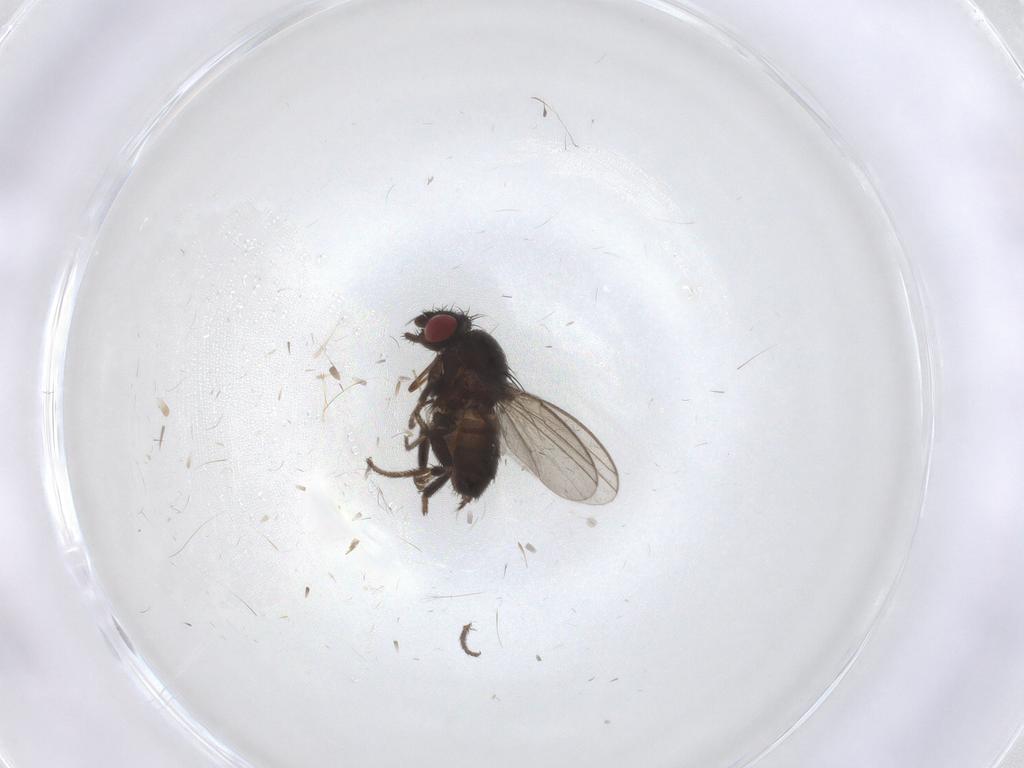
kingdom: Animalia
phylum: Arthropoda
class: Insecta
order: Diptera
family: Milichiidae
